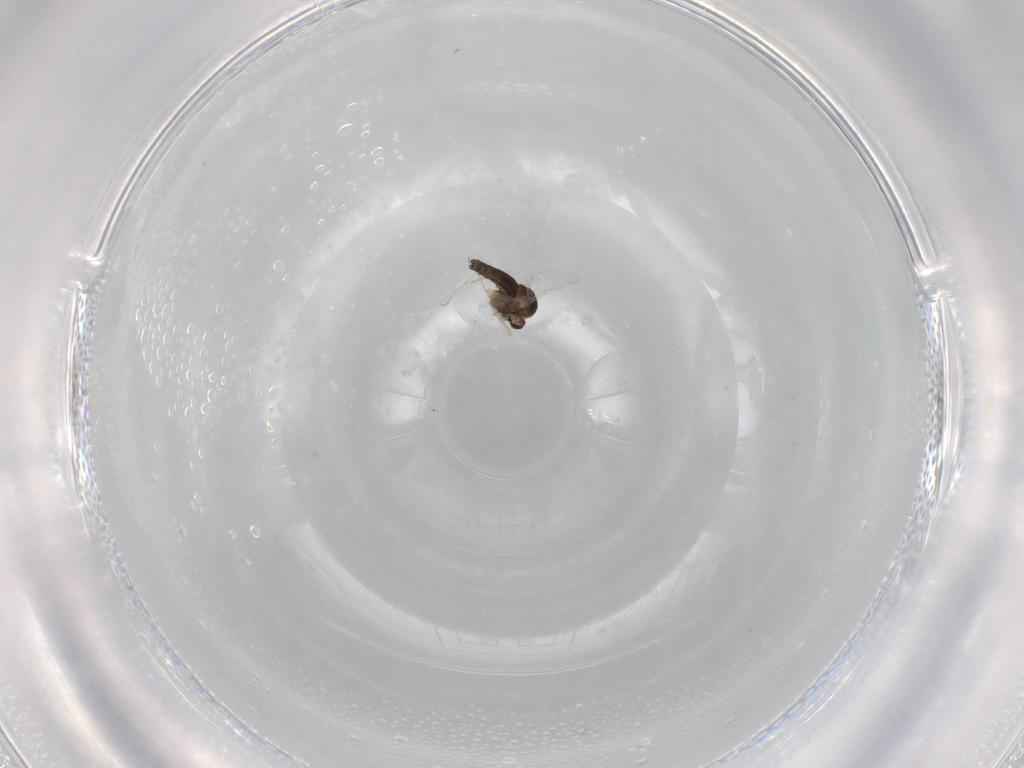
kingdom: Animalia
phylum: Arthropoda
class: Insecta
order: Diptera
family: Chironomidae
